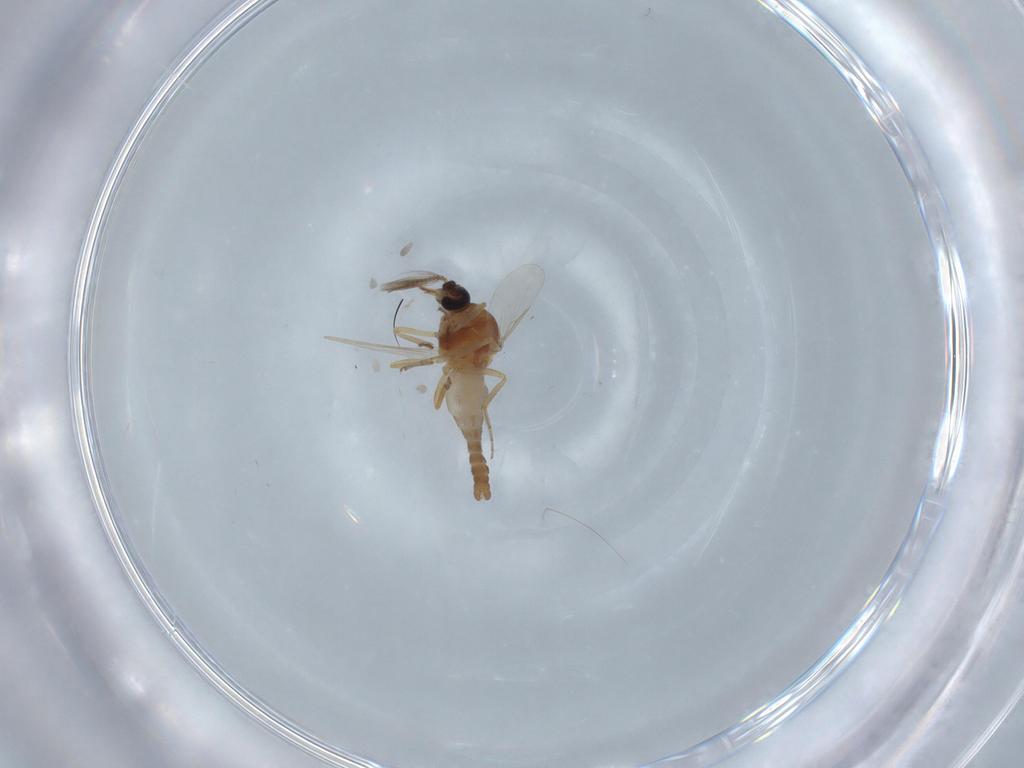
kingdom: Animalia
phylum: Arthropoda
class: Insecta
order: Diptera
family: Ceratopogonidae
